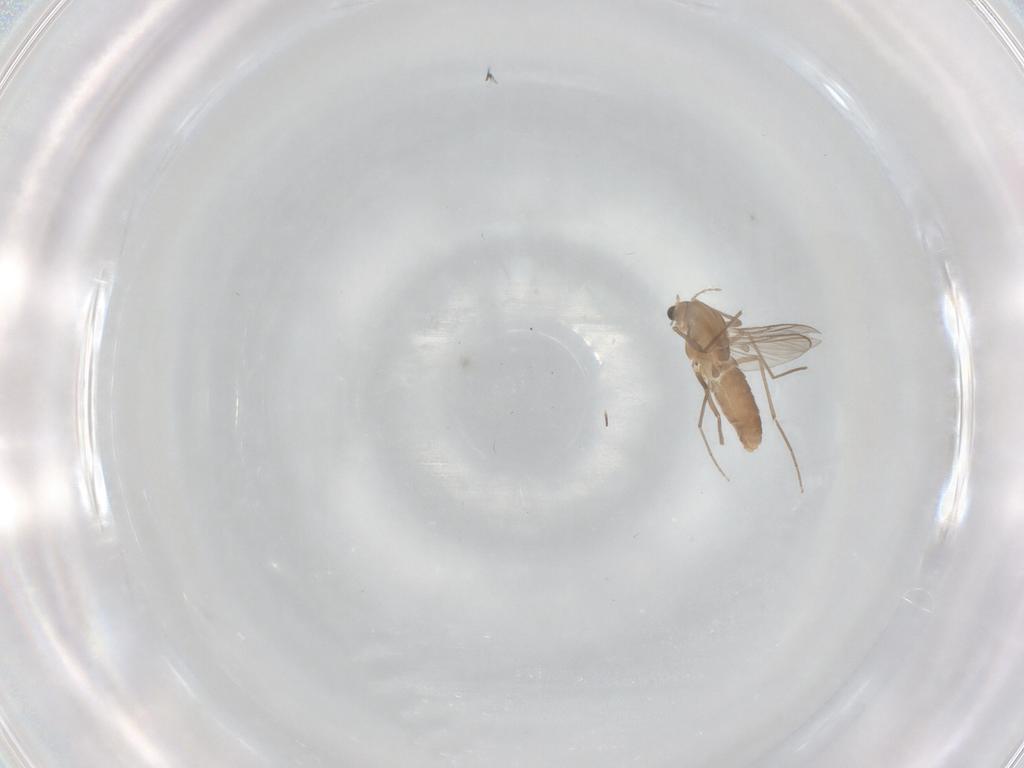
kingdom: Animalia
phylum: Arthropoda
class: Insecta
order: Diptera
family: Chironomidae
